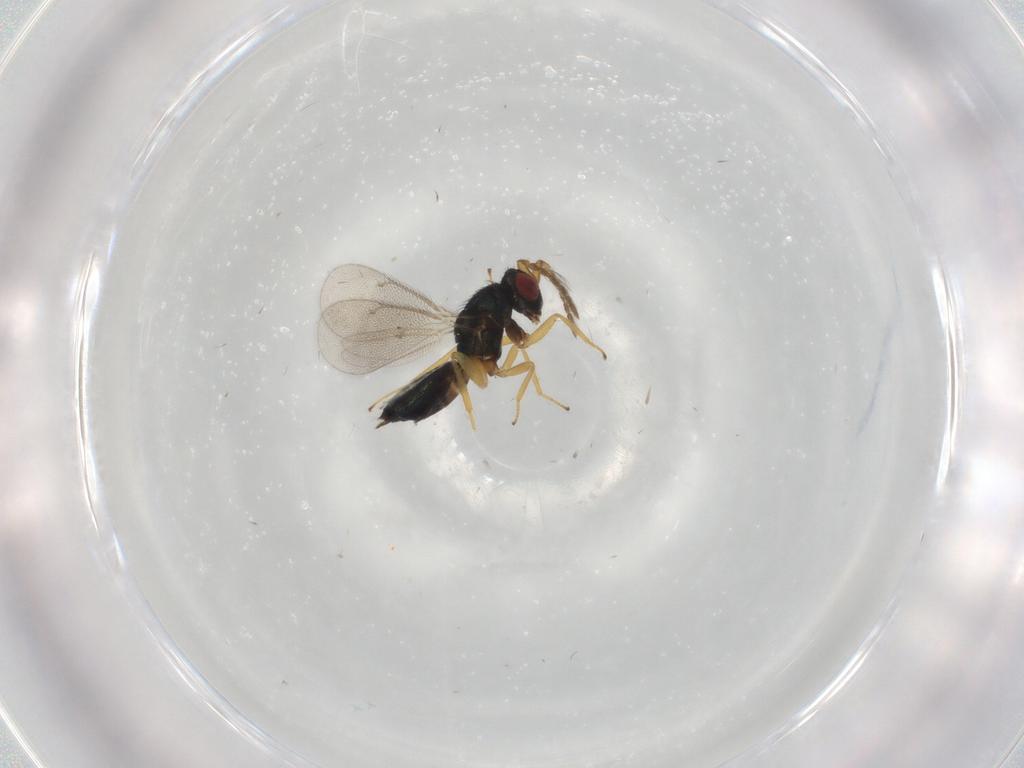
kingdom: Animalia
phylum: Arthropoda
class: Insecta
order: Hymenoptera
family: Eulophidae
